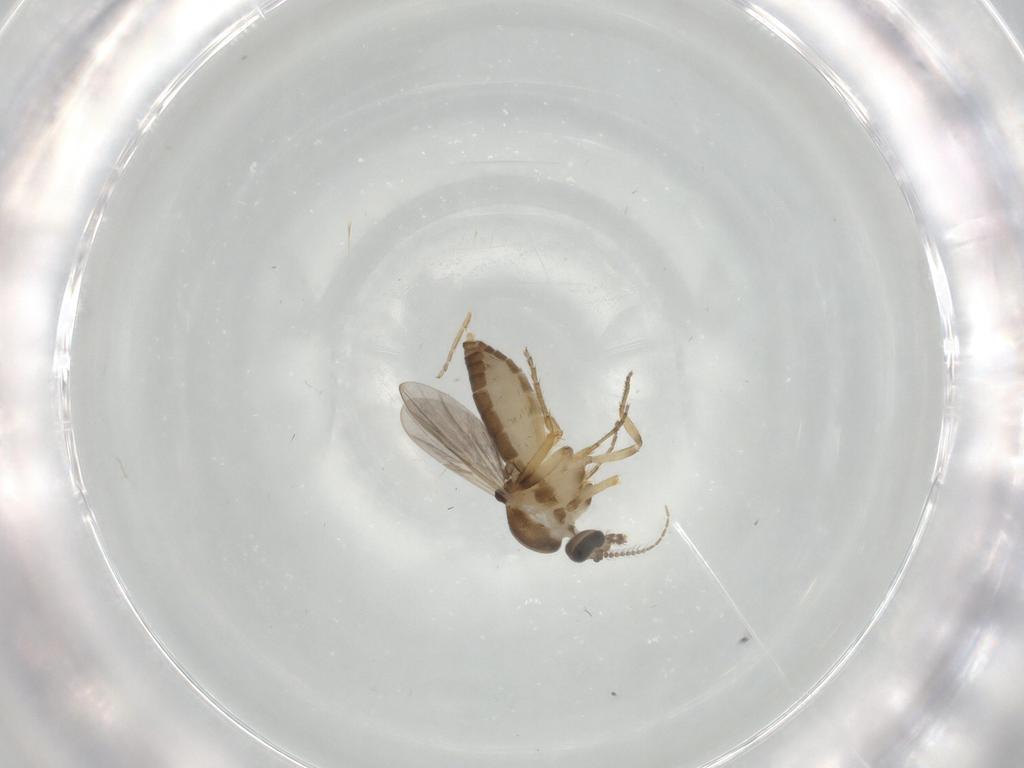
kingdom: Animalia
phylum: Arthropoda
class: Insecta
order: Diptera
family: Ceratopogonidae
